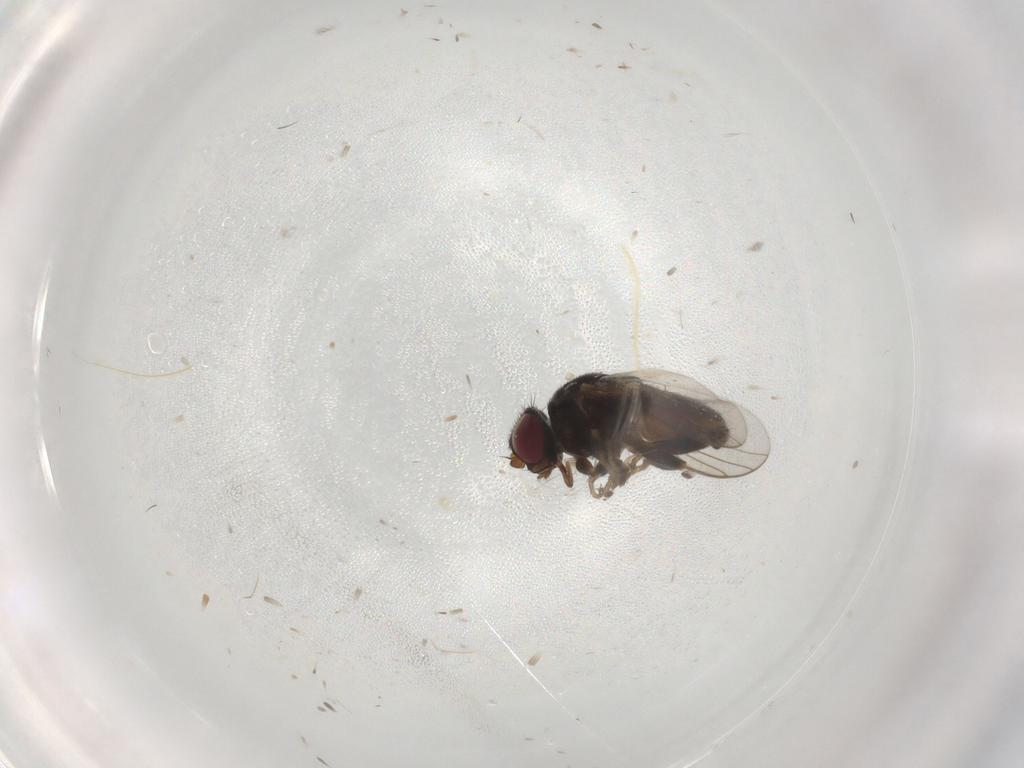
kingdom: Animalia
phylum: Arthropoda
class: Insecta
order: Diptera
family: Chloropidae
